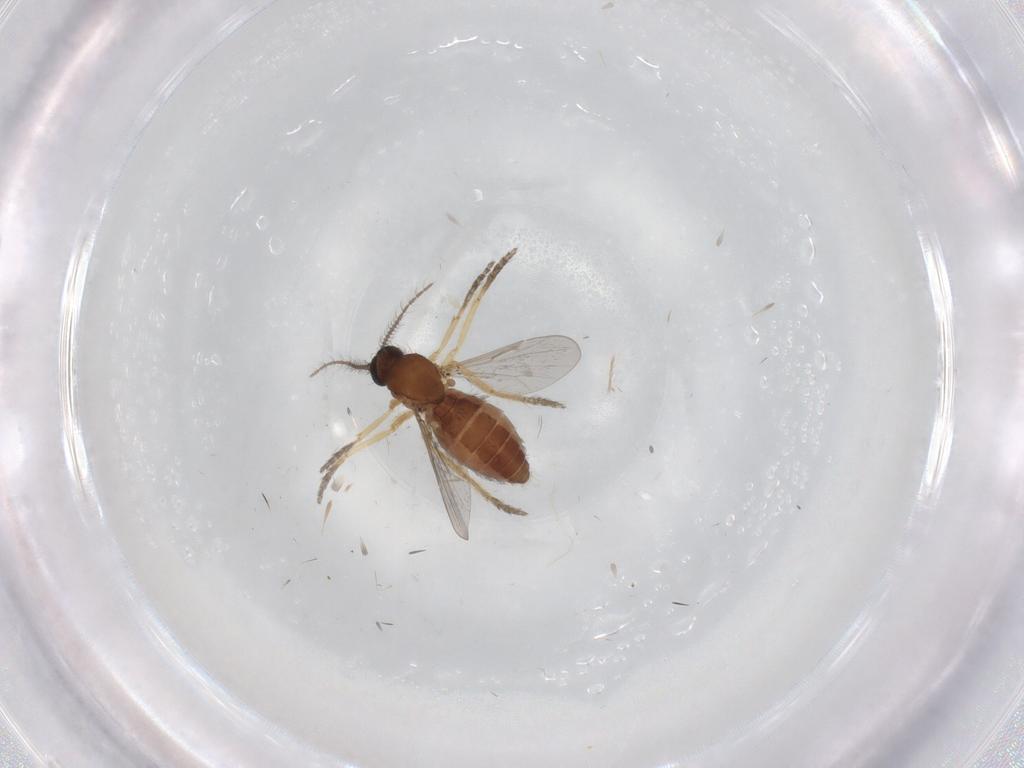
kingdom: Animalia
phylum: Arthropoda
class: Insecta
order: Diptera
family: Ceratopogonidae
